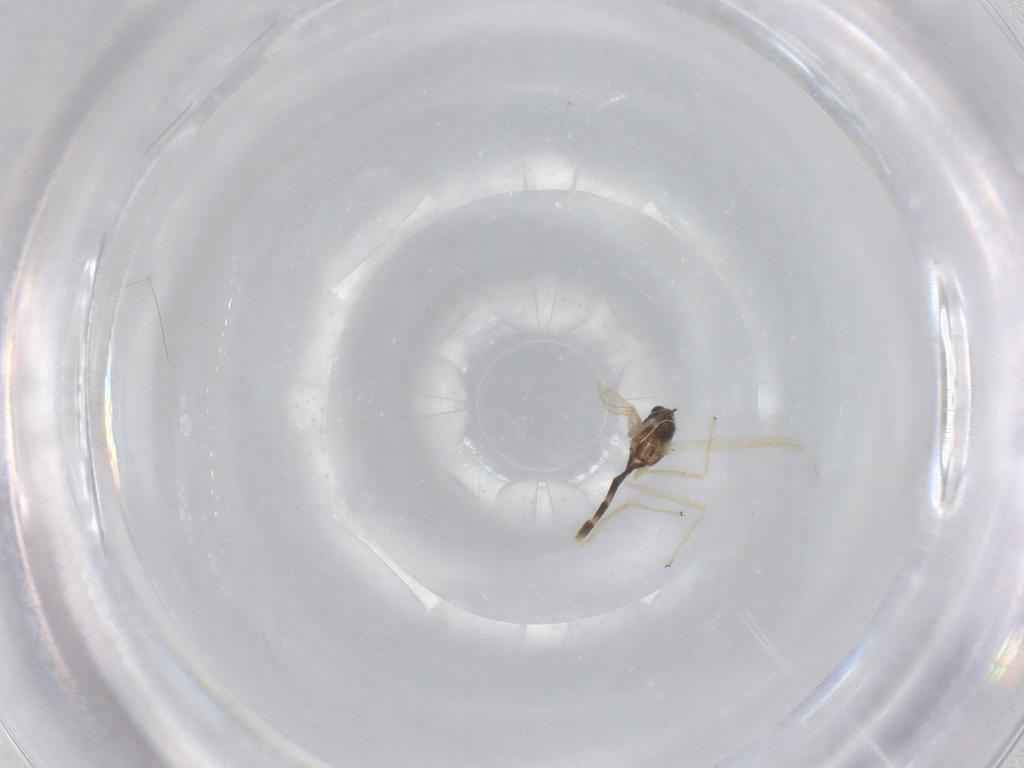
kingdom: Animalia
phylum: Arthropoda
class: Insecta
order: Diptera
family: Chironomidae
